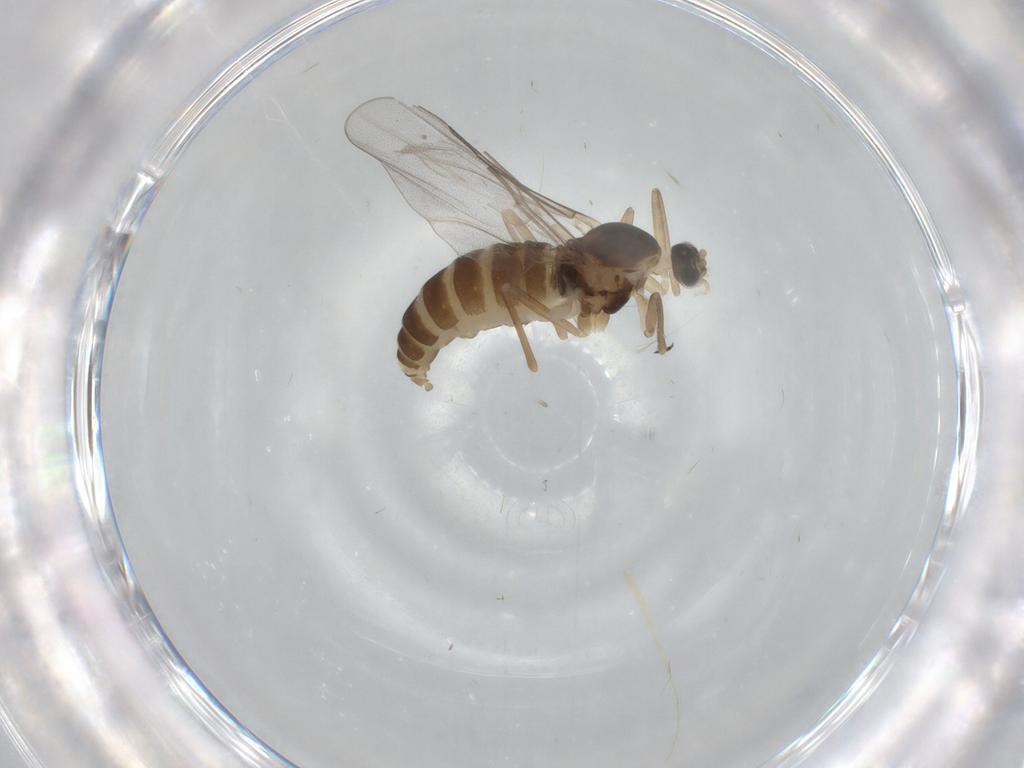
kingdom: Animalia
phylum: Arthropoda
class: Insecta
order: Diptera
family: Cecidomyiidae
